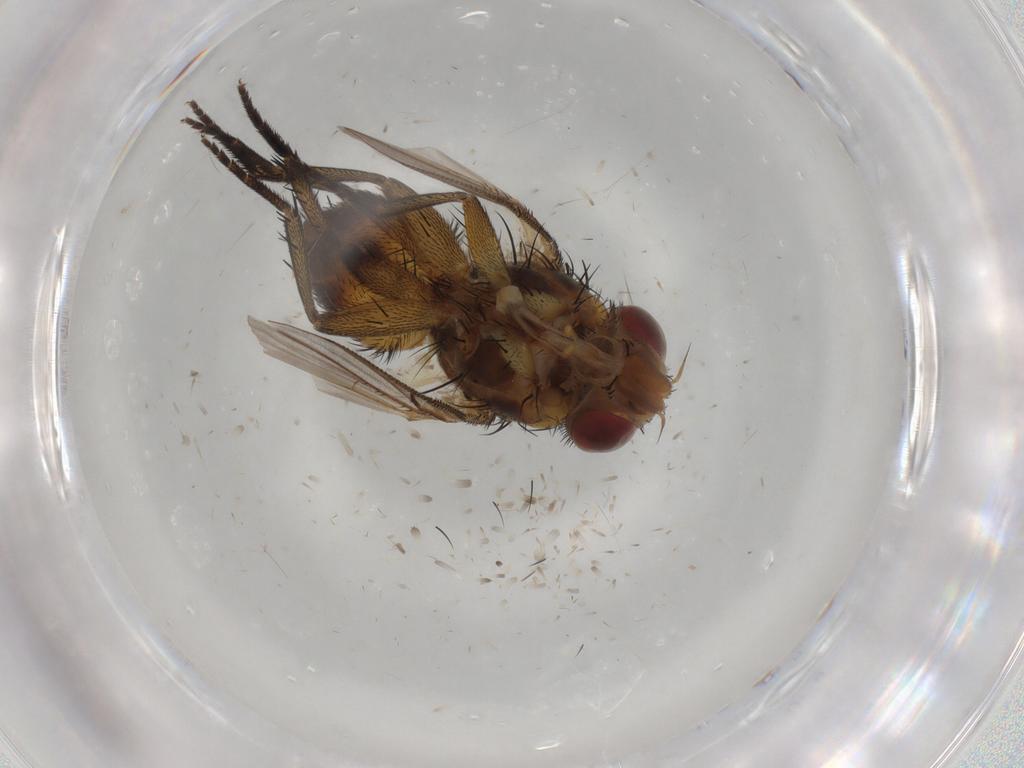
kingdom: Animalia
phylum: Arthropoda
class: Insecta
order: Diptera
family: Tachinidae
